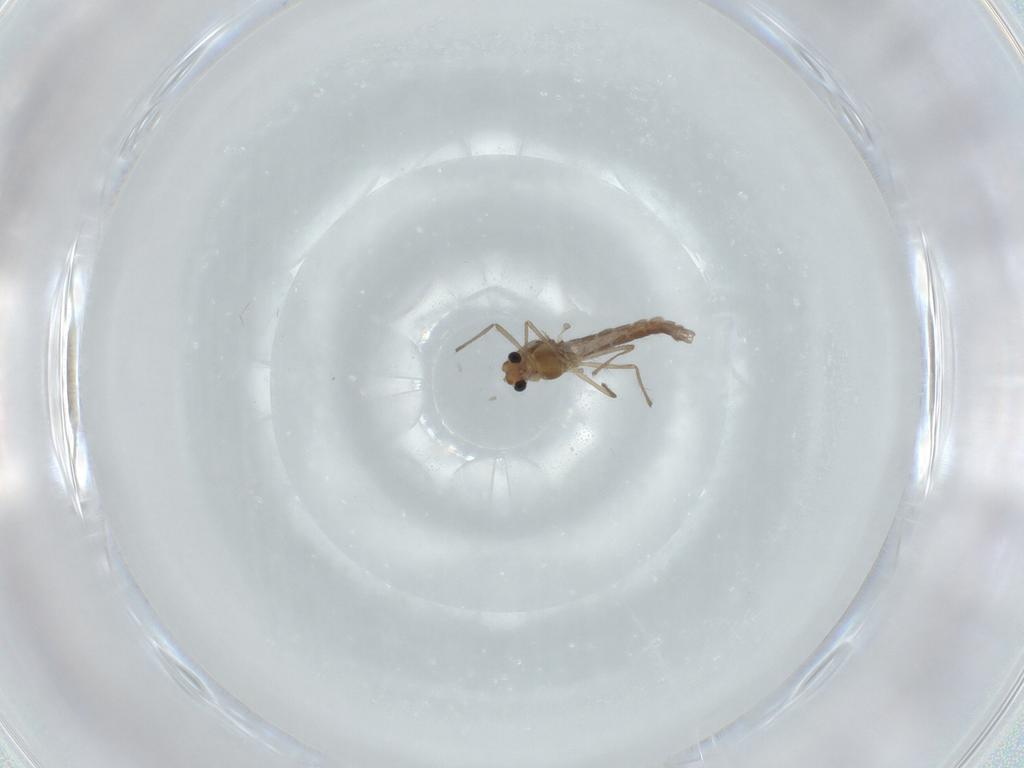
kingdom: Animalia
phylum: Arthropoda
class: Insecta
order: Diptera
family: Chironomidae
